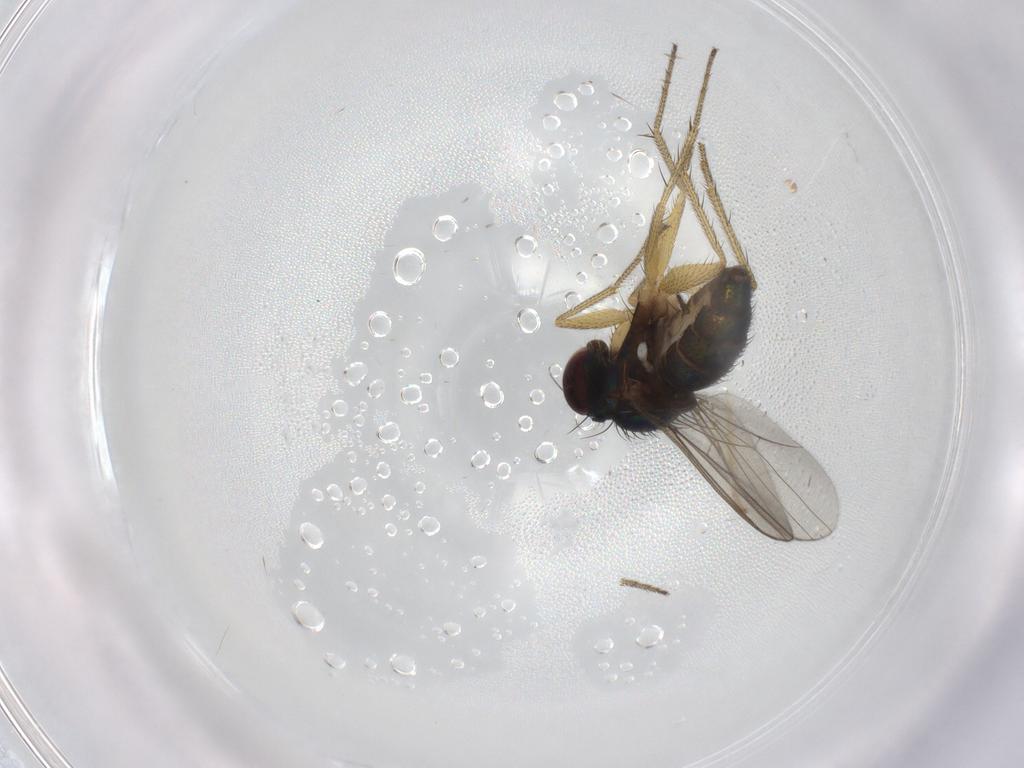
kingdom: Animalia
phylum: Arthropoda
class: Insecta
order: Diptera
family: Chironomidae
